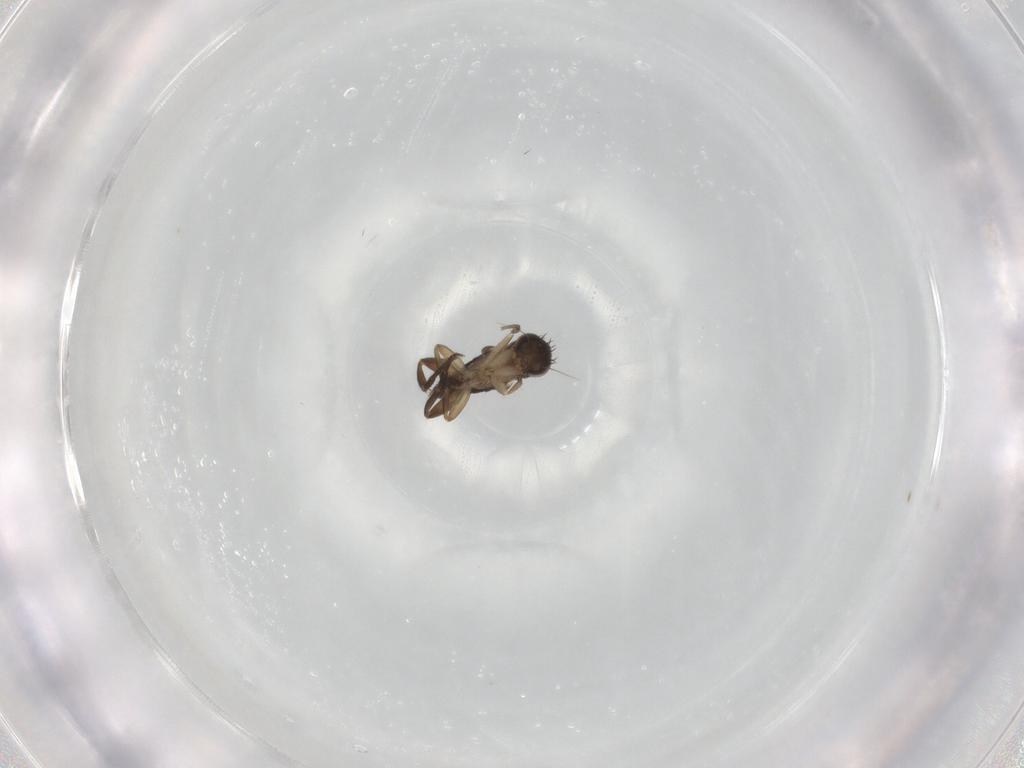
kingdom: Animalia
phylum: Arthropoda
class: Insecta
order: Diptera
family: Phoridae
